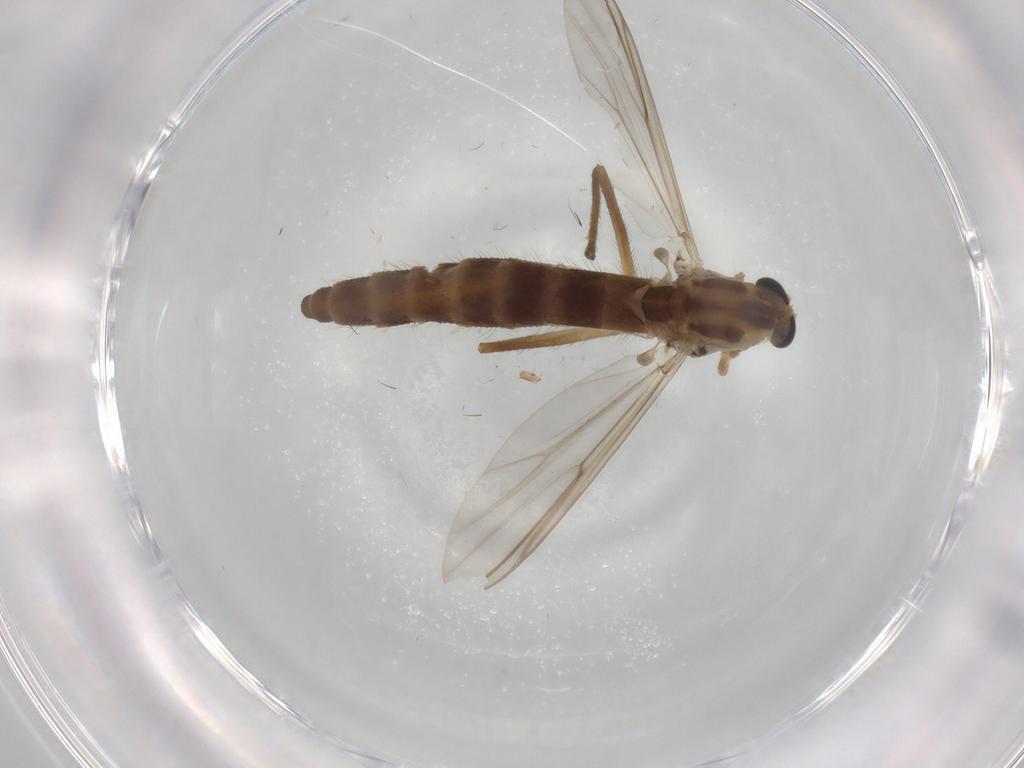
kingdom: Animalia
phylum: Arthropoda
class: Insecta
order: Diptera
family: Chironomidae
